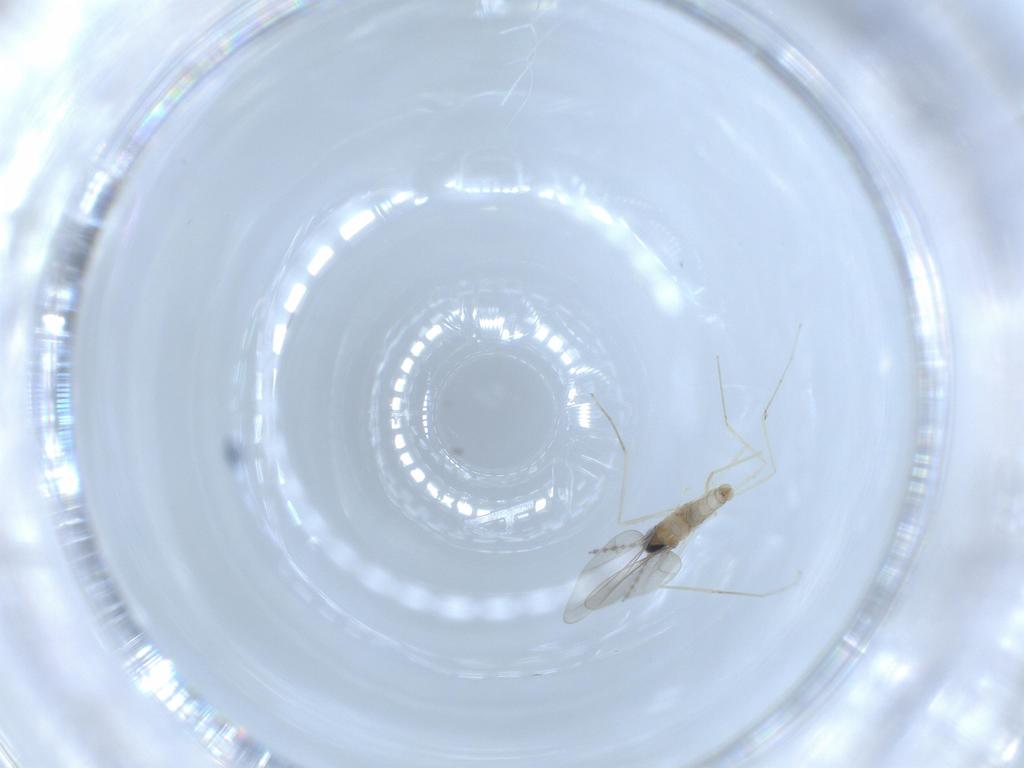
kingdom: Animalia
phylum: Arthropoda
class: Insecta
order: Diptera
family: Cecidomyiidae
